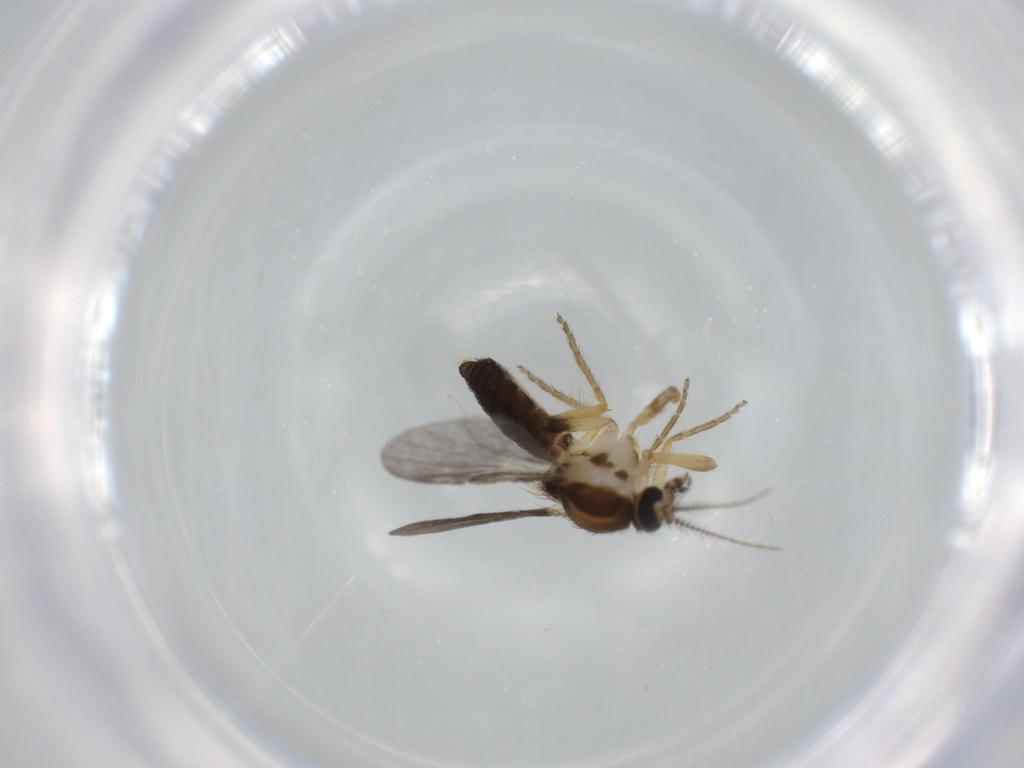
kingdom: Animalia
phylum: Arthropoda
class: Insecta
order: Diptera
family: Ceratopogonidae
